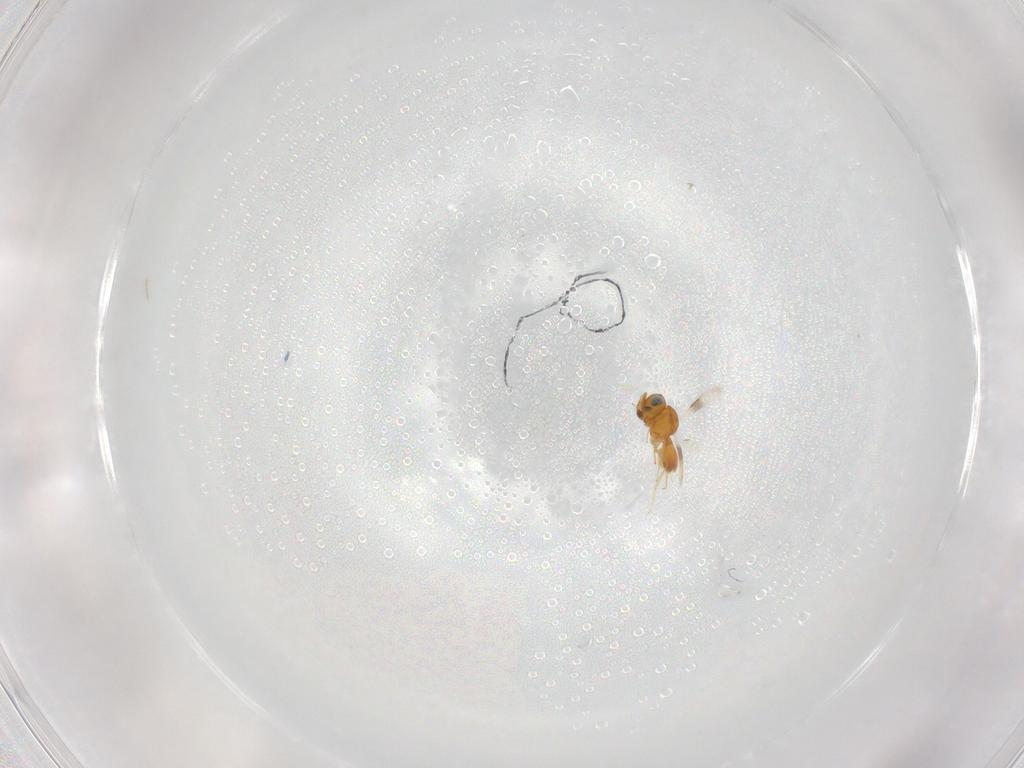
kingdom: Animalia
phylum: Arthropoda
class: Insecta
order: Hymenoptera
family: Scelionidae
